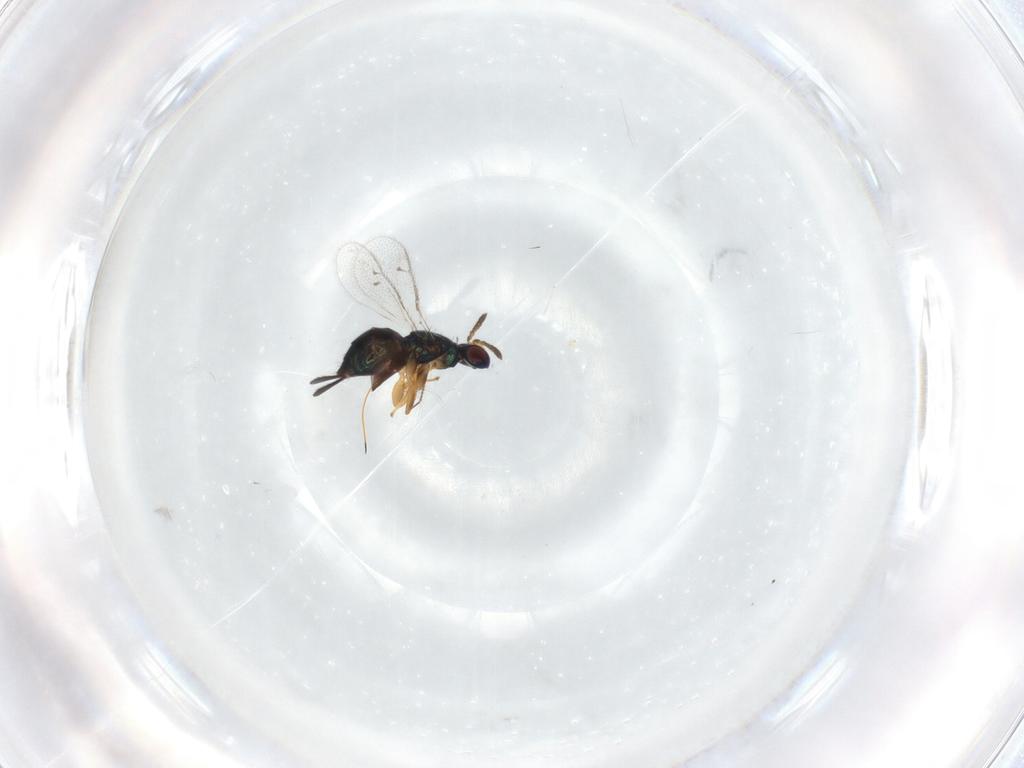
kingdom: Animalia
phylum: Arthropoda
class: Insecta
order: Hymenoptera
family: Torymidae
